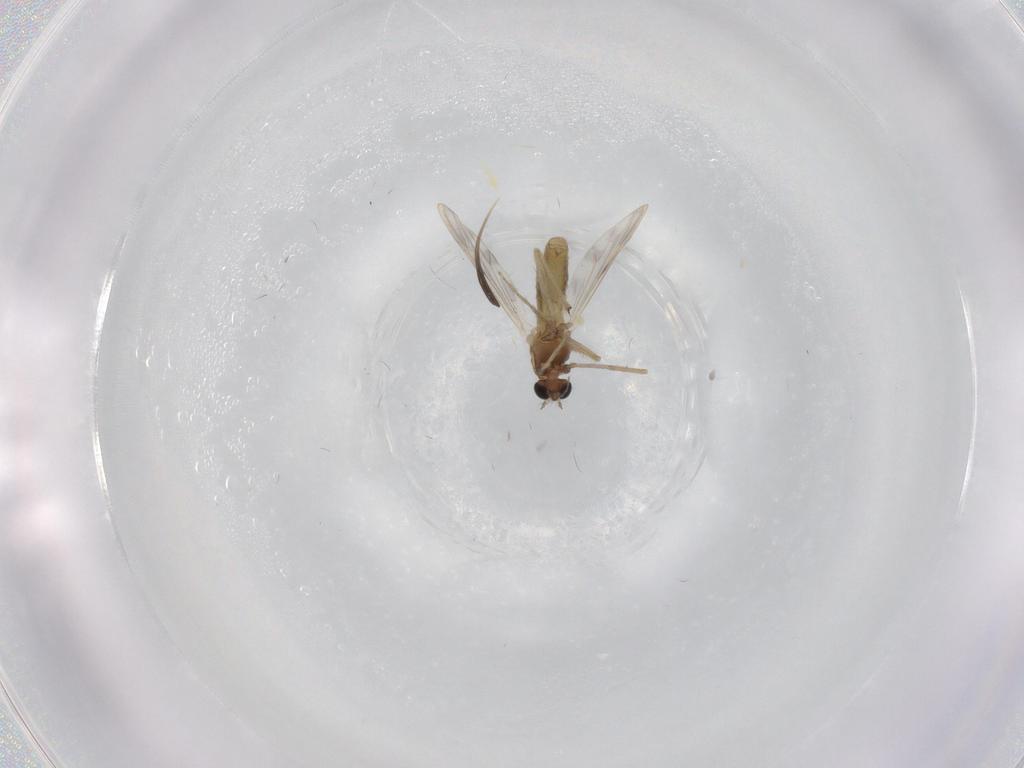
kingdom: Animalia
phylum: Arthropoda
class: Insecta
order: Diptera
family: Chironomidae
